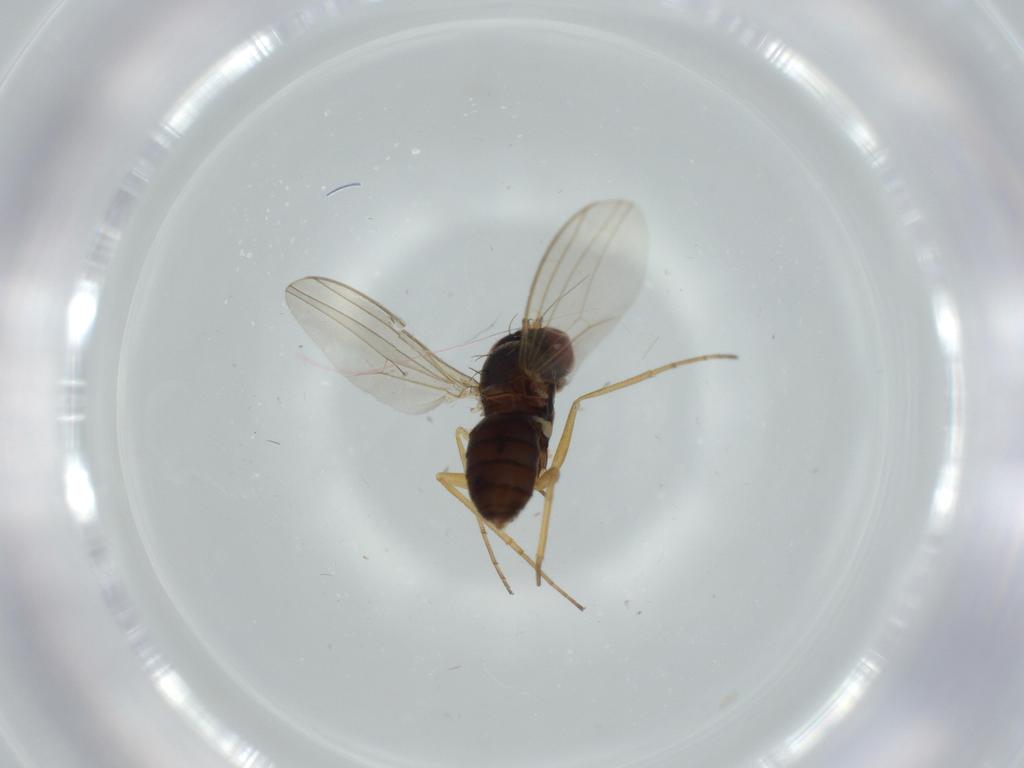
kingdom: Animalia
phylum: Arthropoda
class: Insecta
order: Diptera
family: Dolichopodidae
